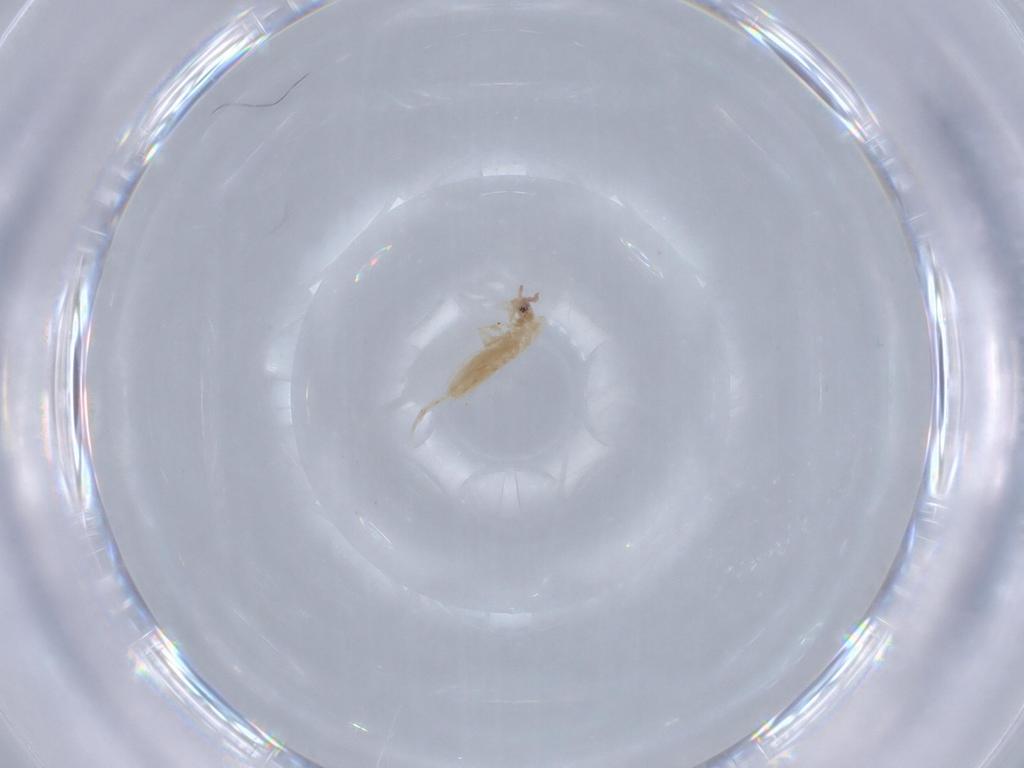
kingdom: Animalia
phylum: Arthropoda
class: Collembola
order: Entomobryomorpha
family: Entomobryidae
